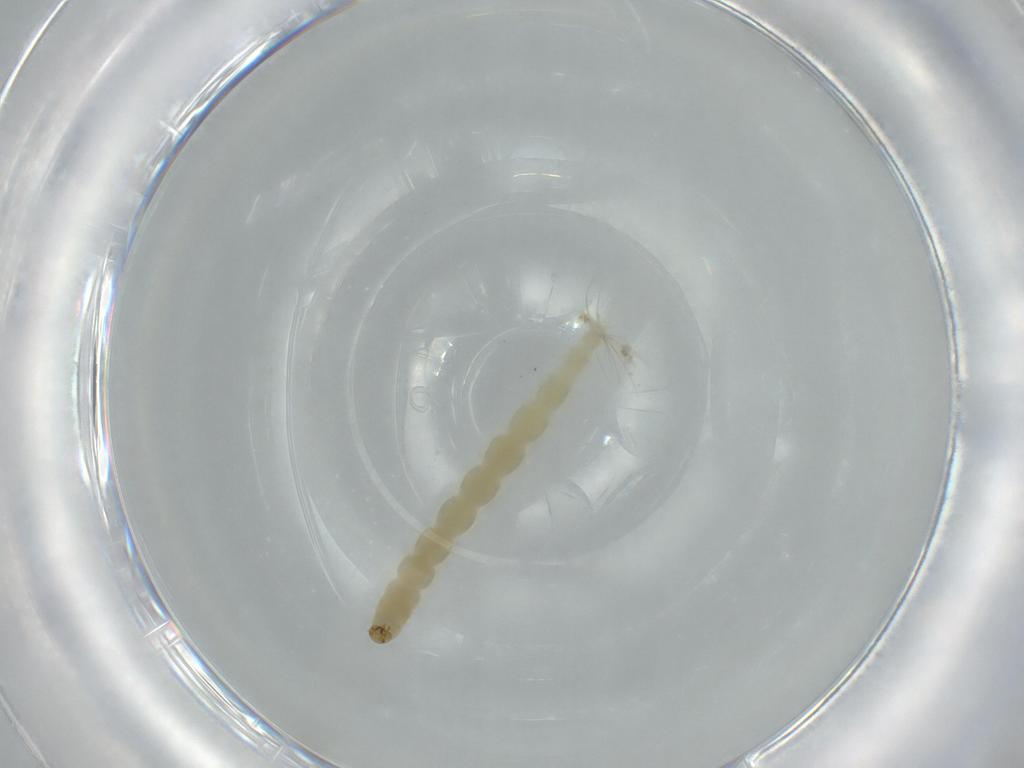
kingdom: Animalia
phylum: Arthropoda
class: Insecta
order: Diptera
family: Chironomidae
